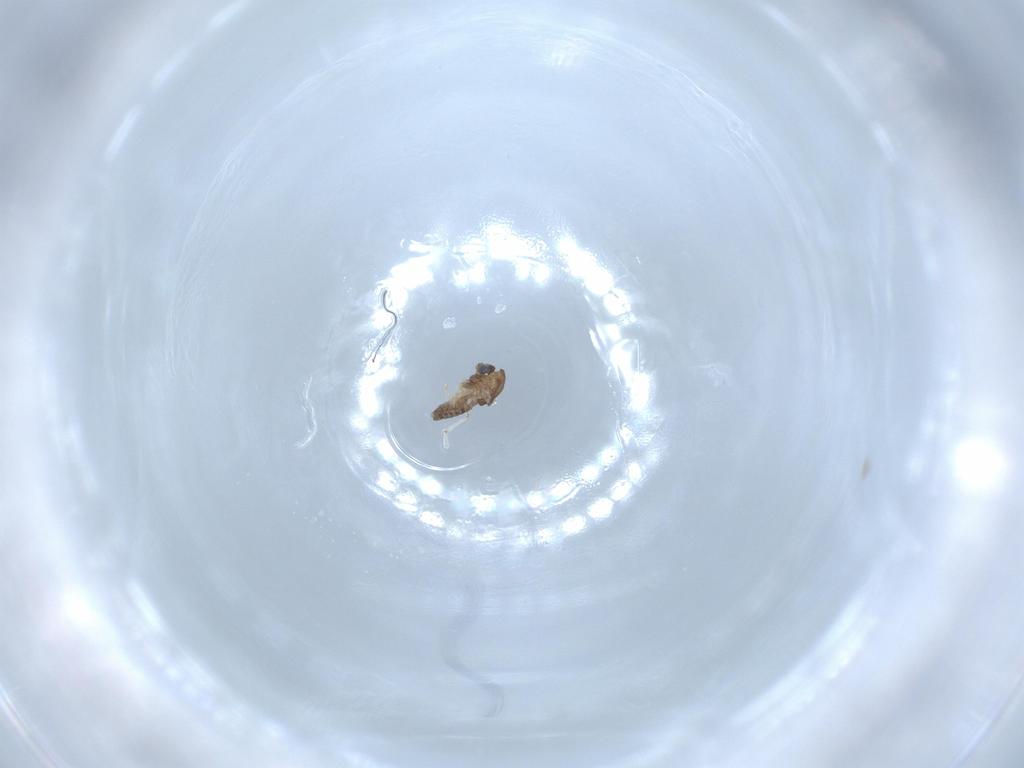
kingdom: Animalia
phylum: Arthropoda
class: Insecta
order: Diptera
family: Chironomidae
